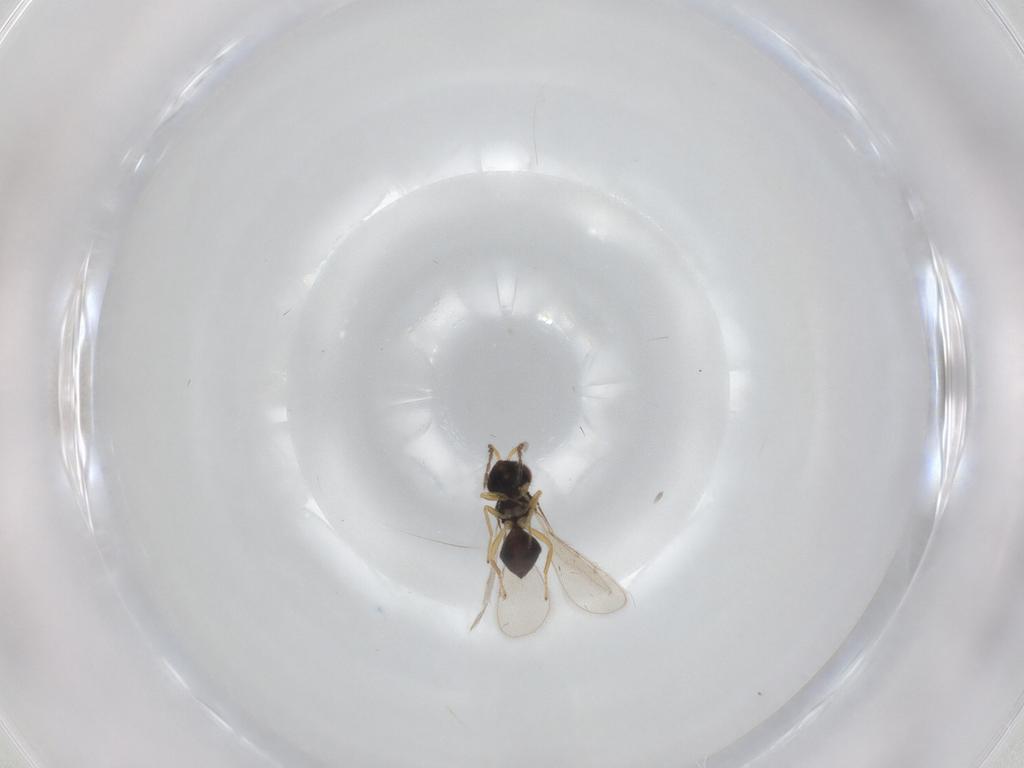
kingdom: Animalia
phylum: Arthropoda
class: Insecta
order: Hymenoptera
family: Eulophidae
